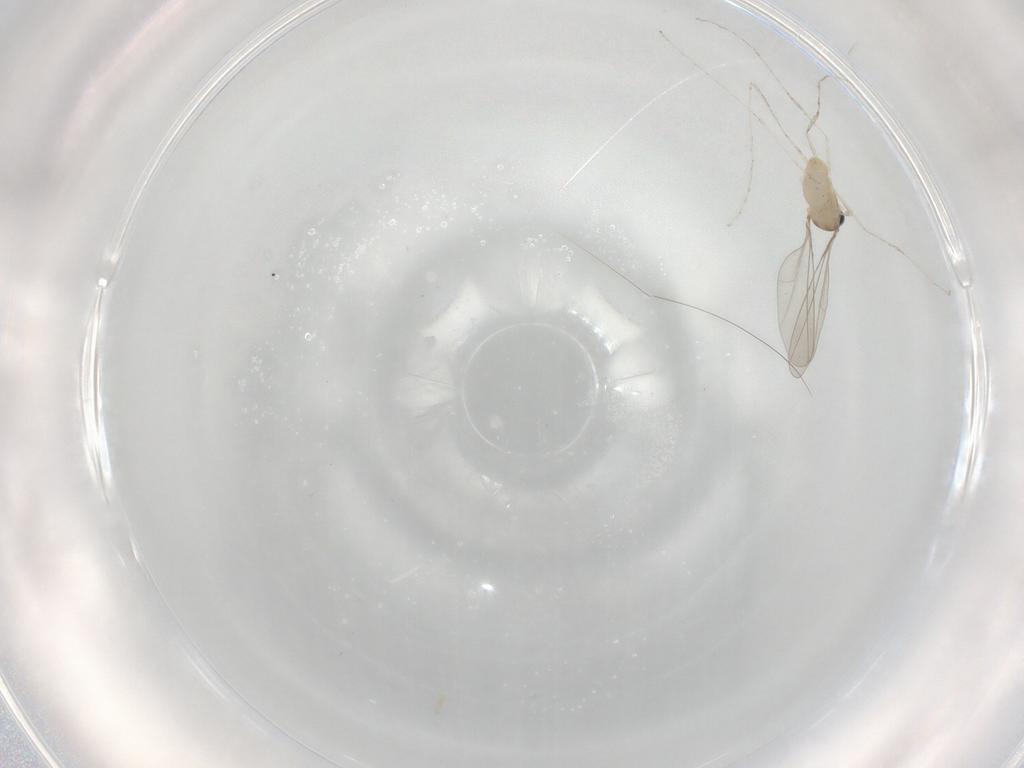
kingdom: Animalia
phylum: Arthropoda
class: Insecta
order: Diptera
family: Cecidomyiidae
